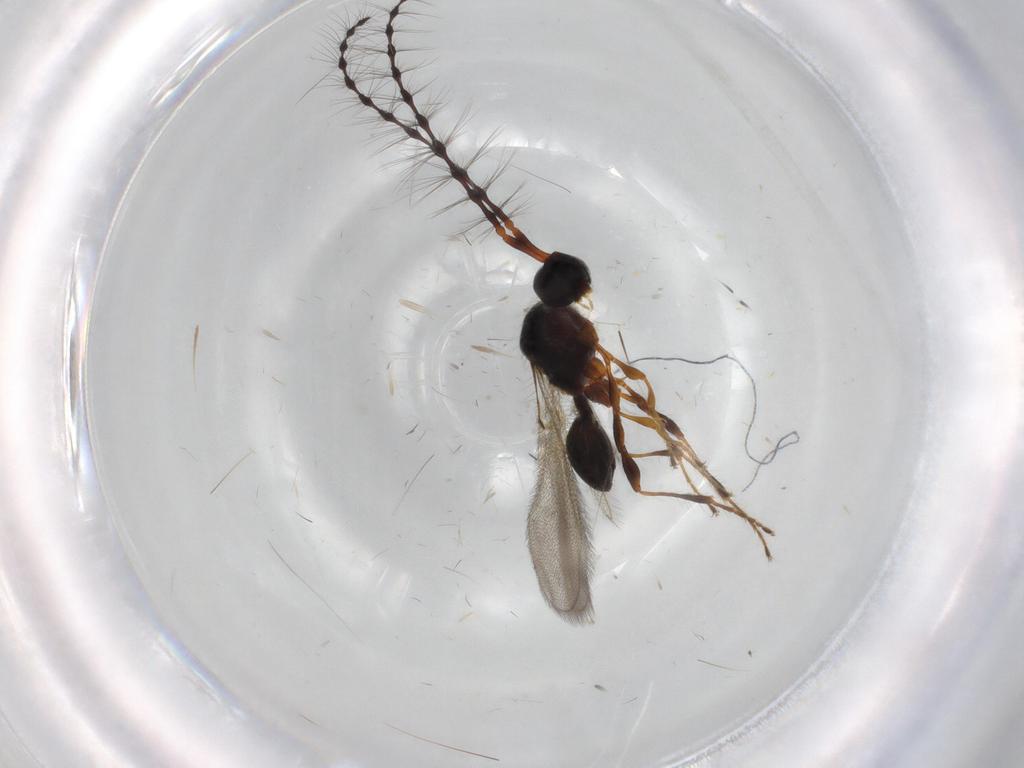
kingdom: Animalia
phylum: Arthropoda
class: Insecta
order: Hymenoptera
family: Diapriidae
